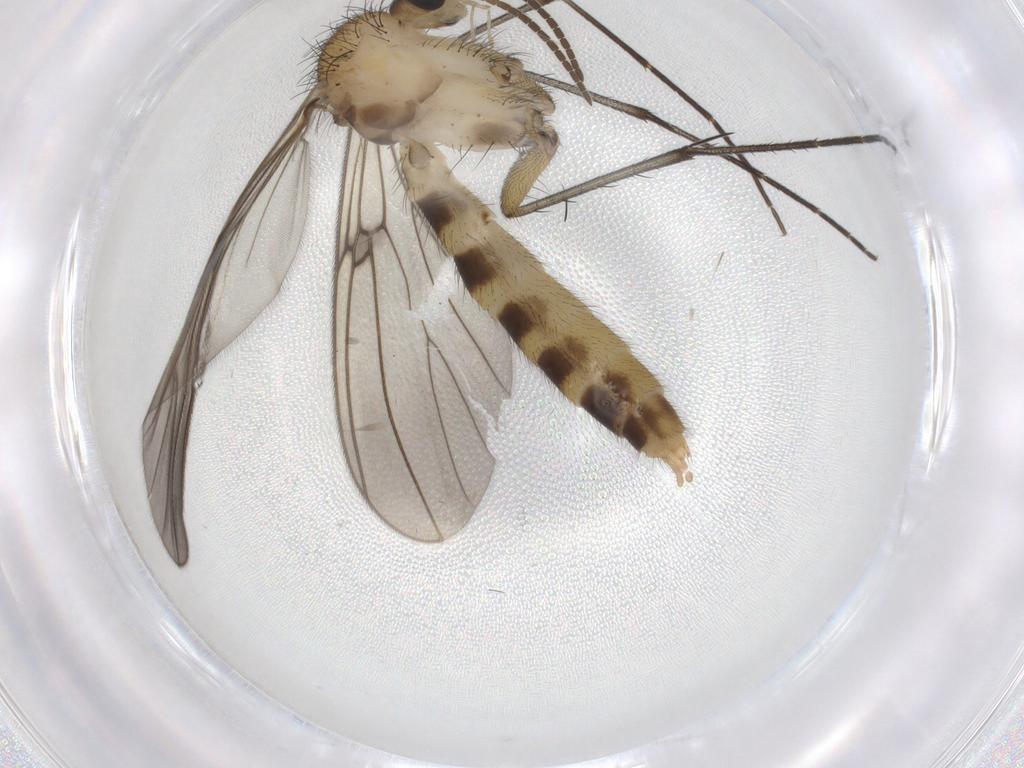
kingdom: Animalia
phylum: Arthropoda
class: Insecta
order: Diptera
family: Mycetophilidae
